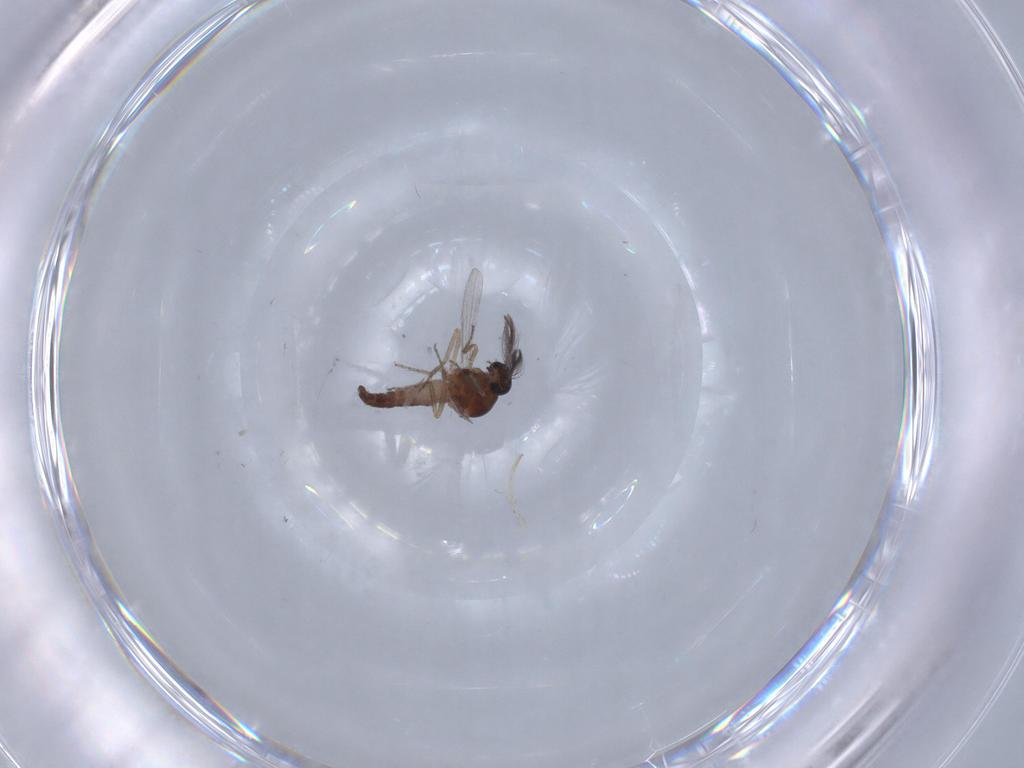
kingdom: Animalia
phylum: Arthropoda
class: Insecta
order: Diptera
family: Cecidomyiidae
